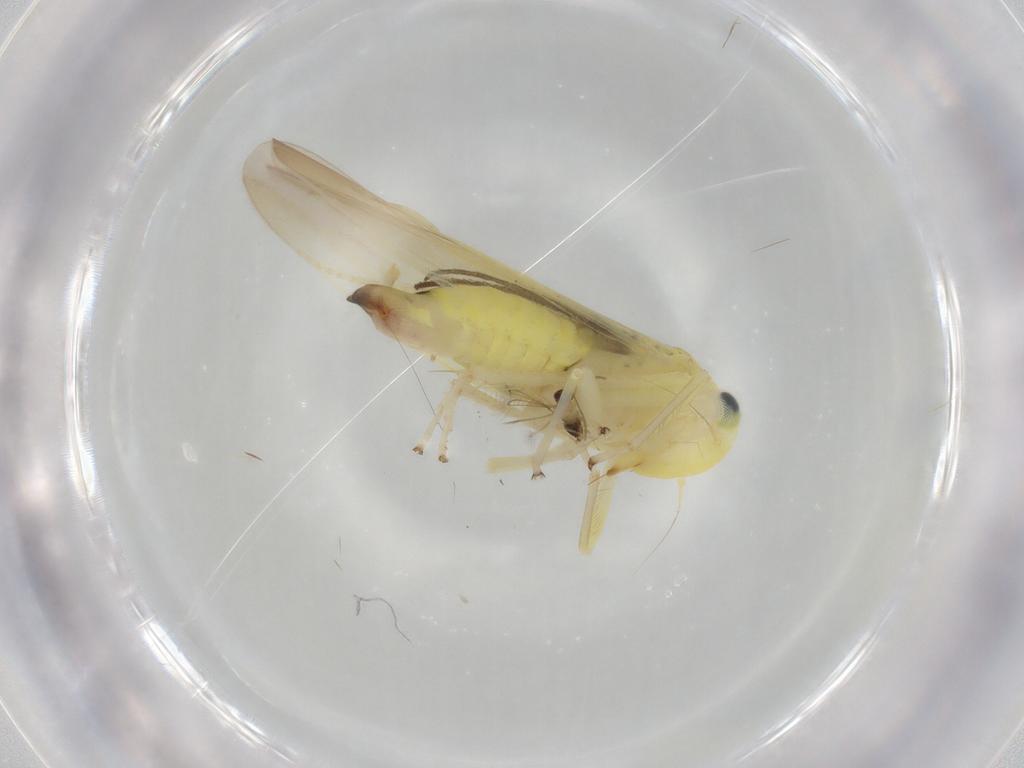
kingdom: Animalia
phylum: Arthropoda
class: Insecta
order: Hemiptera
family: Cicadellidae
